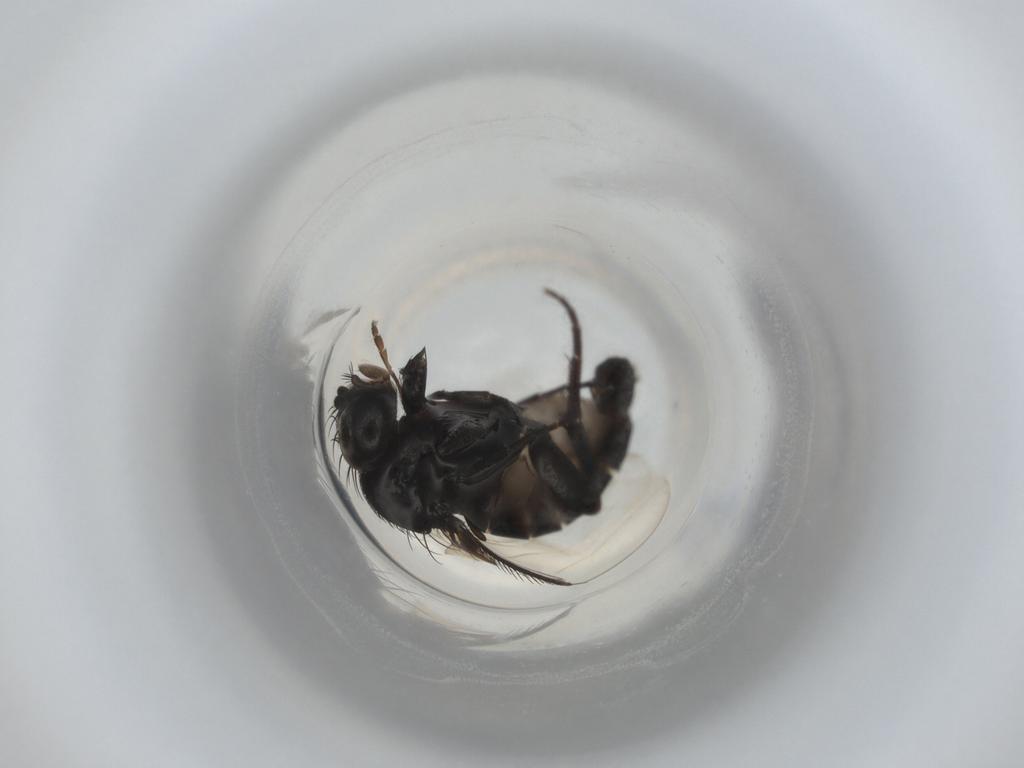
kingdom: Animalia
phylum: Arthropoda
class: Insecta
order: Diptera
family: Phoridae
